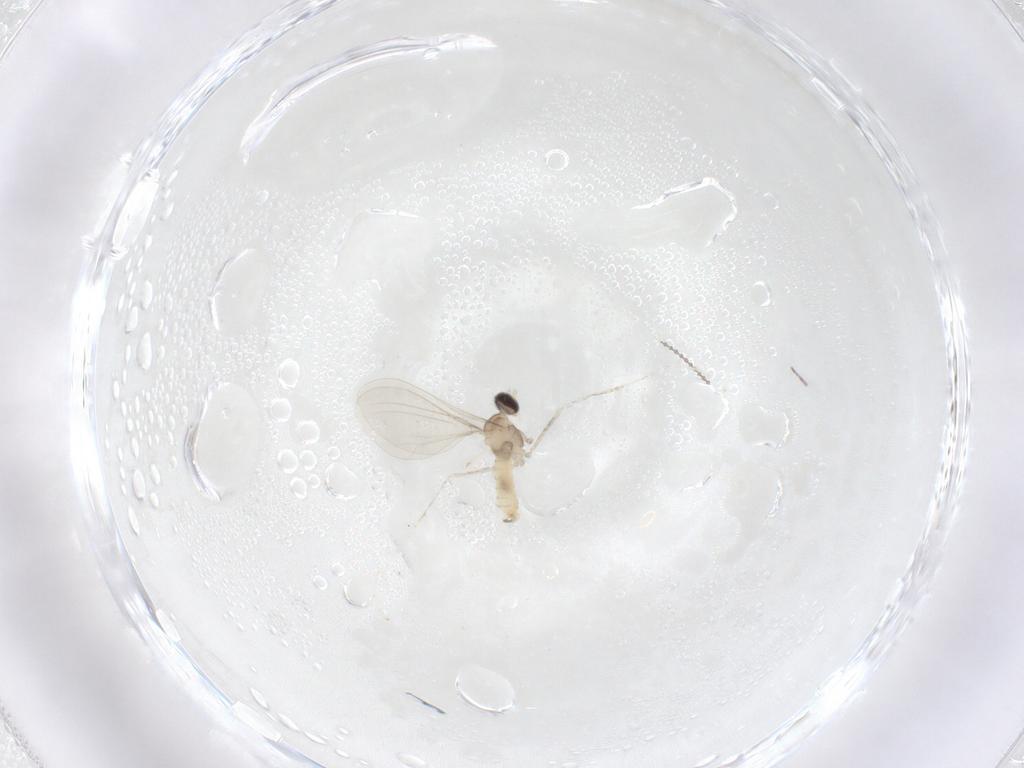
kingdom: Animalia
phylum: Arthropoda
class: Insecta
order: Diptera
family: Cecidomyiidae
